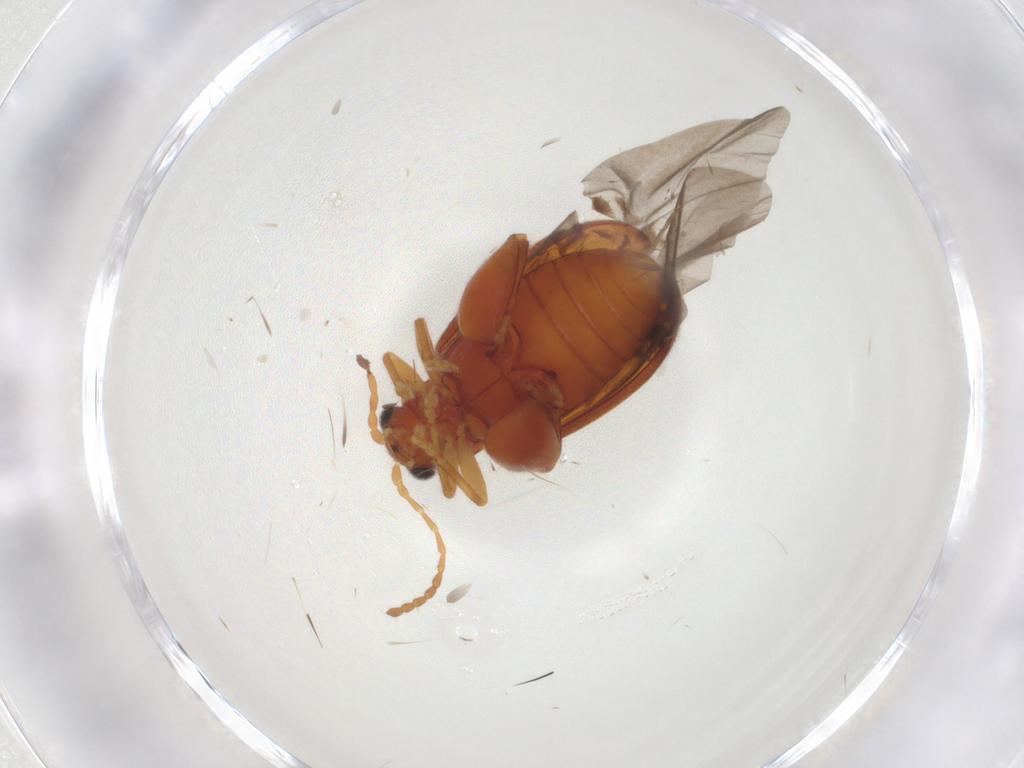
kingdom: Animalia
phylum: Arthropoda
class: Insecta
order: Coleoptera
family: Chrysomelidae
